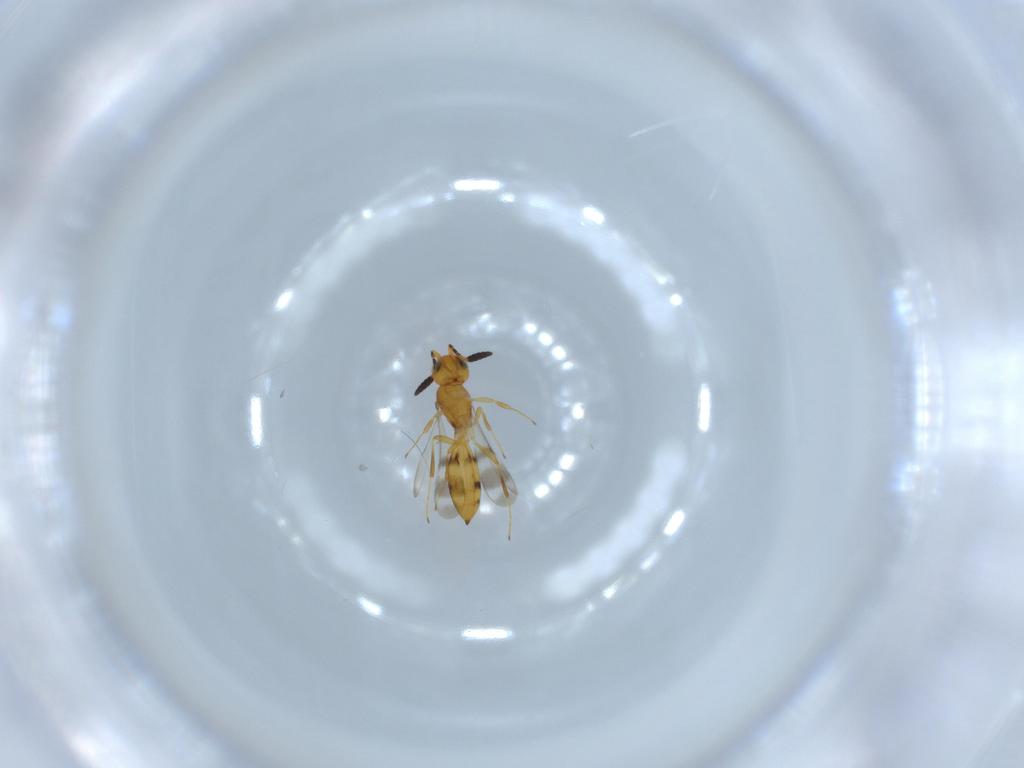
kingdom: Animalia
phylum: Arthropoda
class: Insecta
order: Hymenoptera
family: Scelionidae
